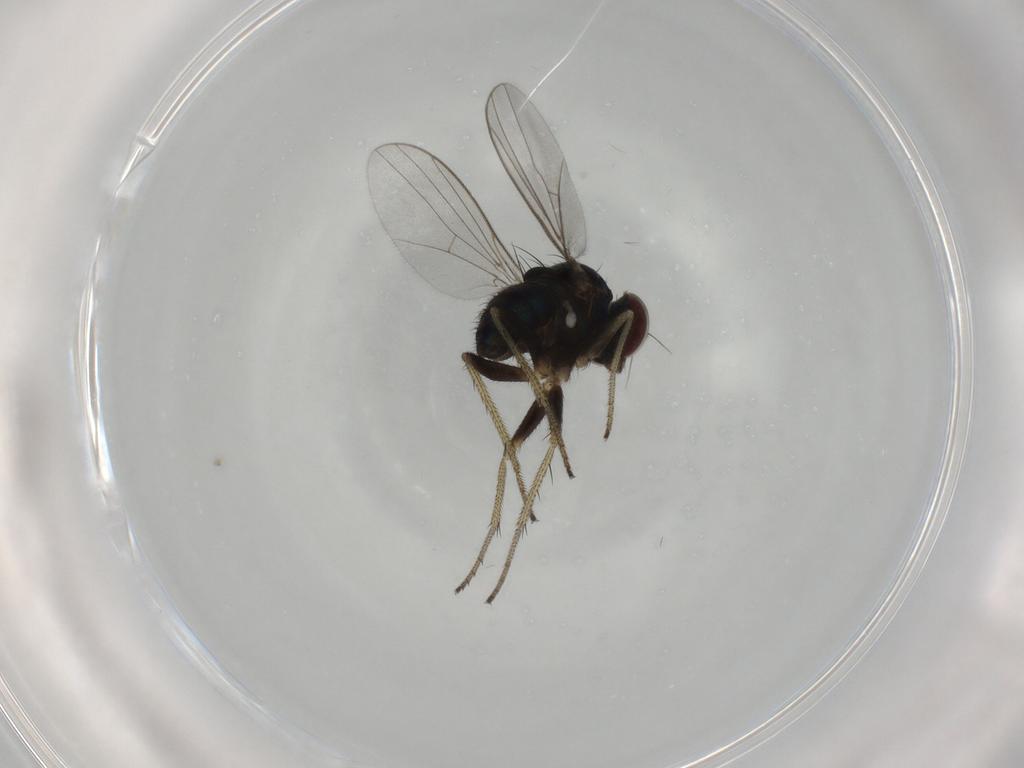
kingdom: Animalia
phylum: Arthropoda
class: Insecta
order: Diptera
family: Limoniidae
